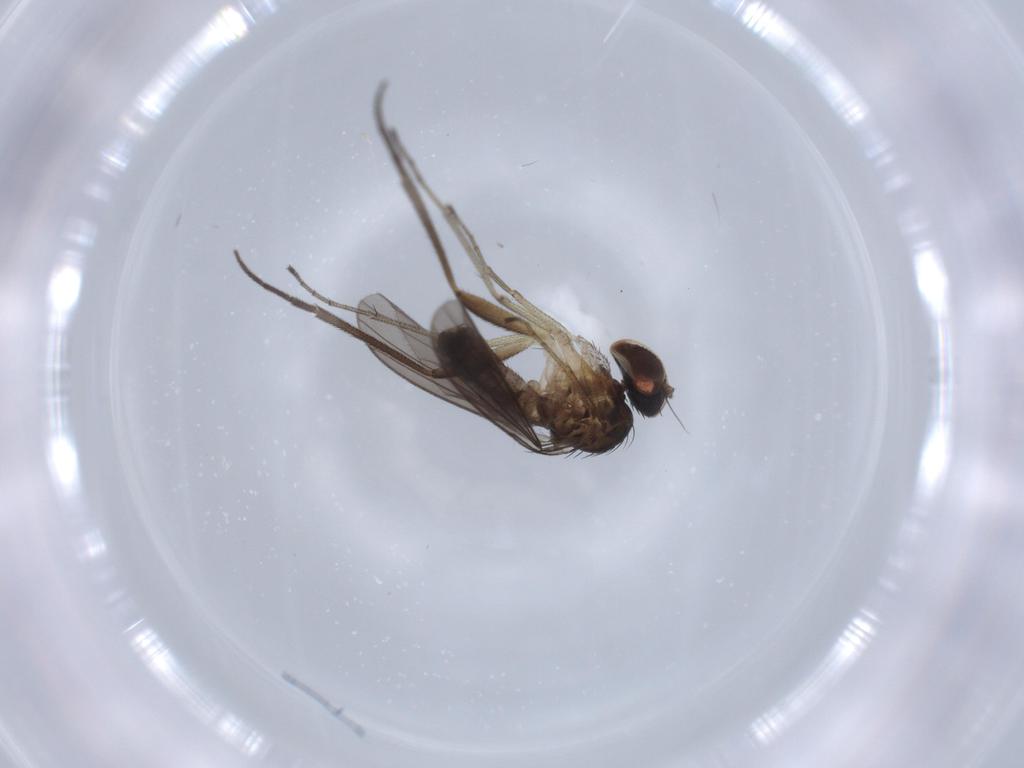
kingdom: Animalia
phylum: Arthropoda
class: Insecta
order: Diptera
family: Dolichopodidae
